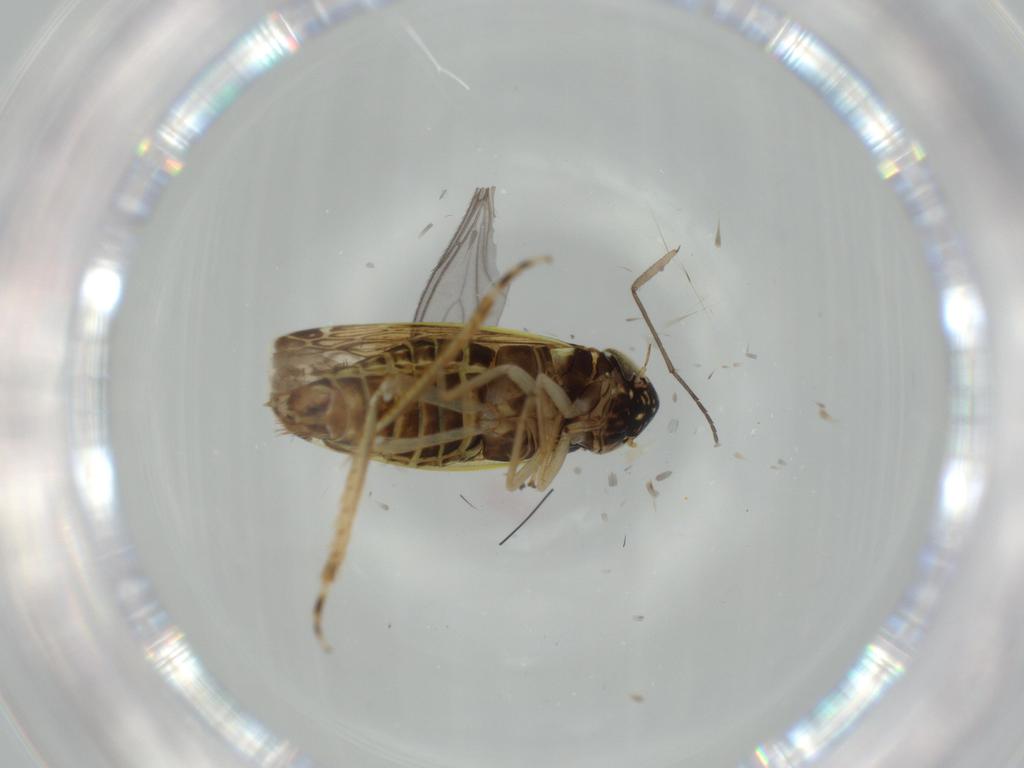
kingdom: Animalia
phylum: Arthropoda
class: Insecta
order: Hemiptera
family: Cicadellidae
